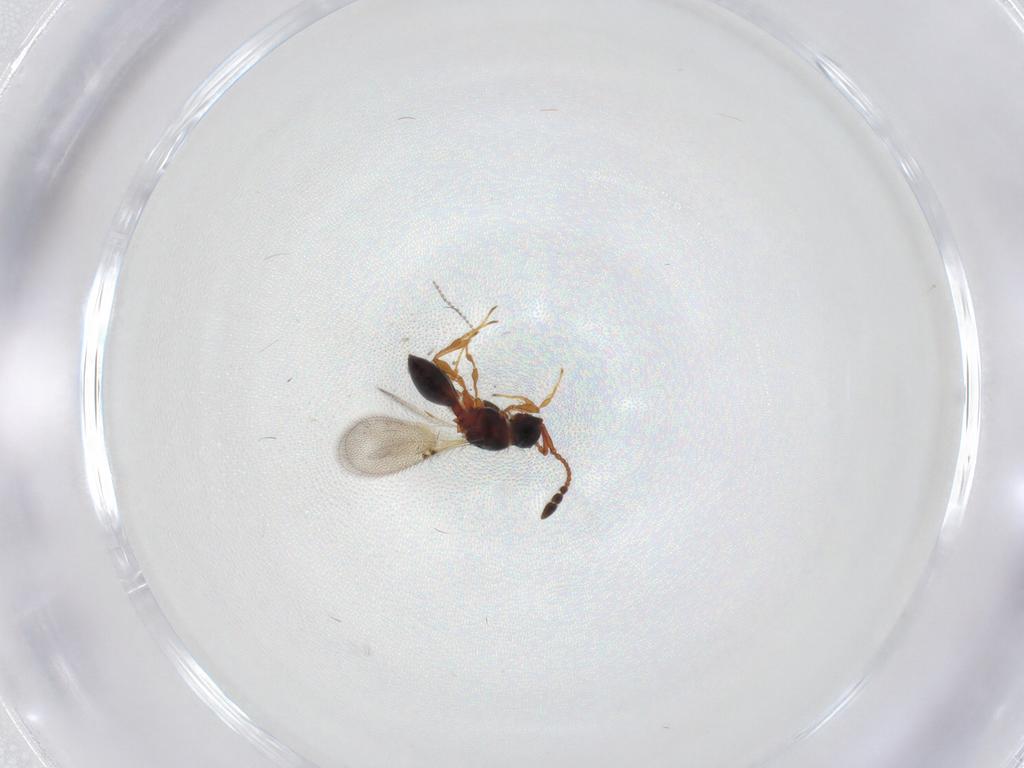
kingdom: Animalia
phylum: Arthropoda
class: Insecta
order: Hymenoptera
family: Diapriidae
